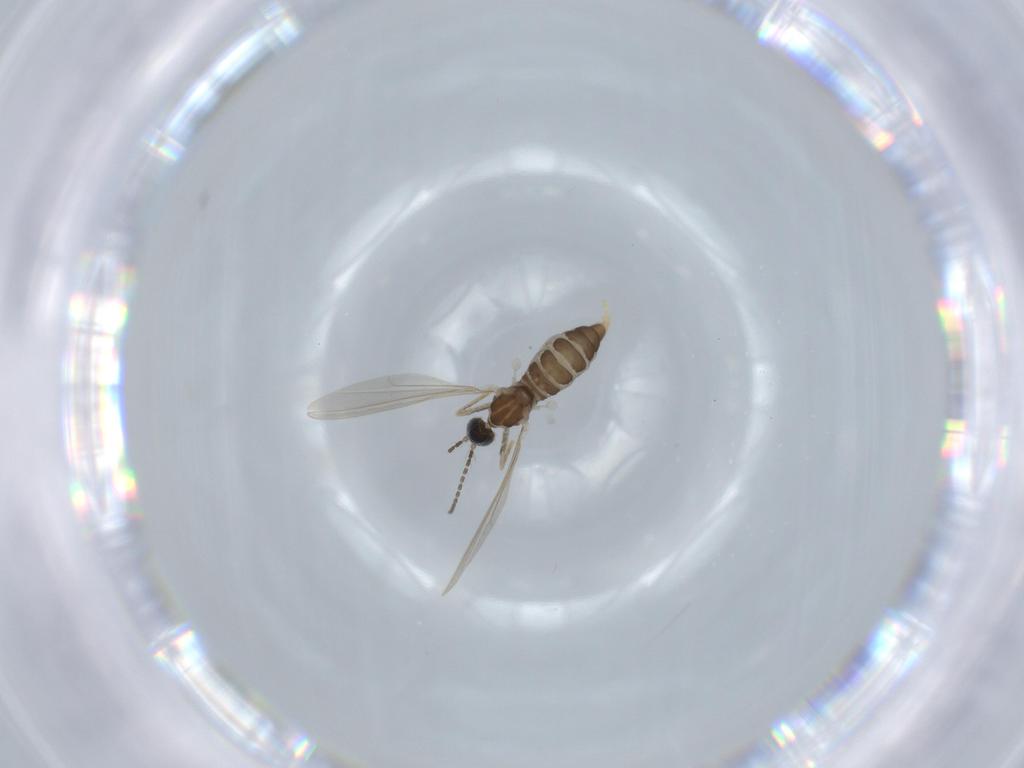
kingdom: Animalia
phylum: Arthropoda
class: Insecta
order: Diptera
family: Cecidomyiidae
